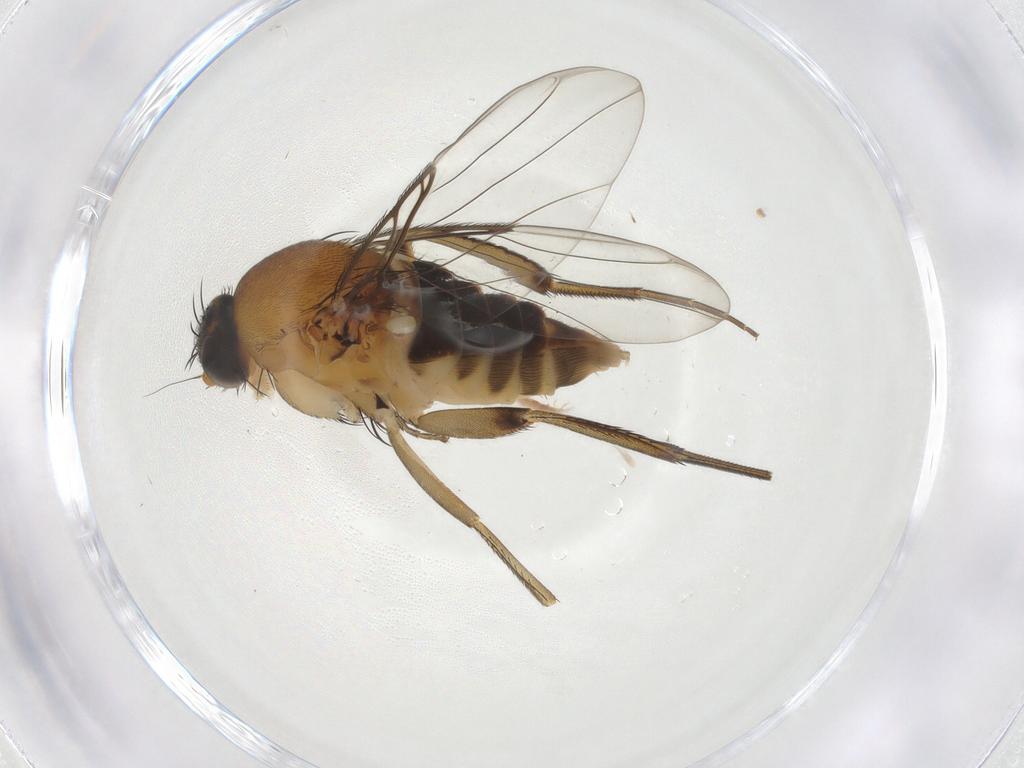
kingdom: Animalia
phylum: Arthropoda
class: Insecta
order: Diptera
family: Phoridae
